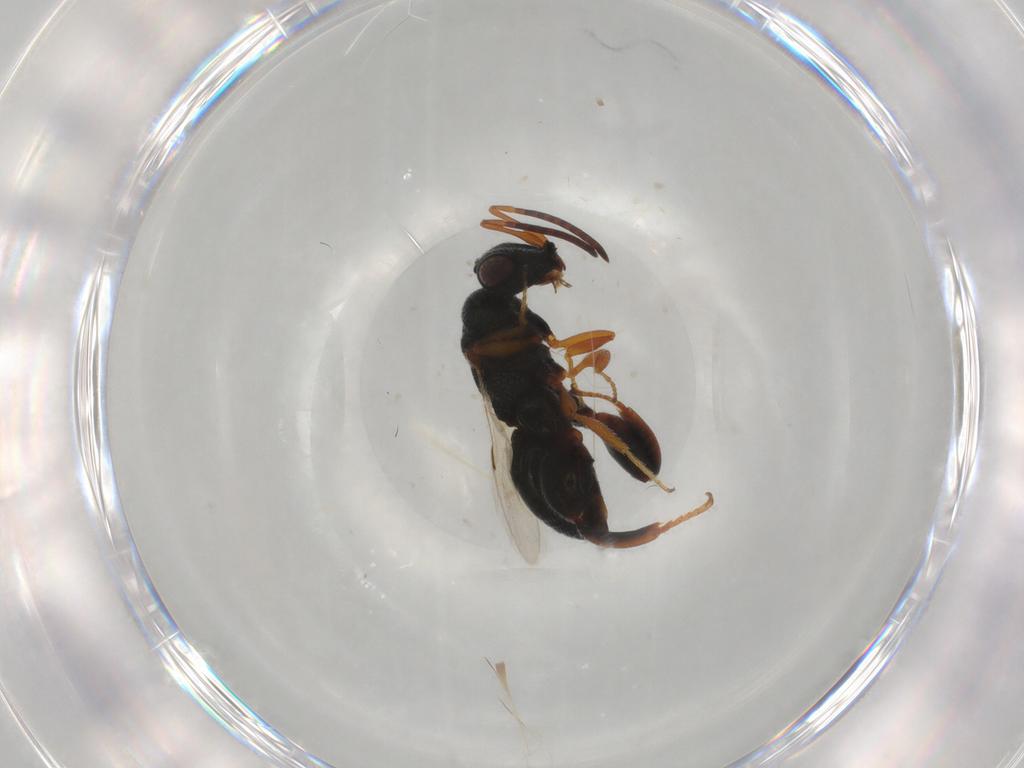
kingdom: Animalia
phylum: Arthropoda
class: Insecta
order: Hymenoptera
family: Chalcididae
